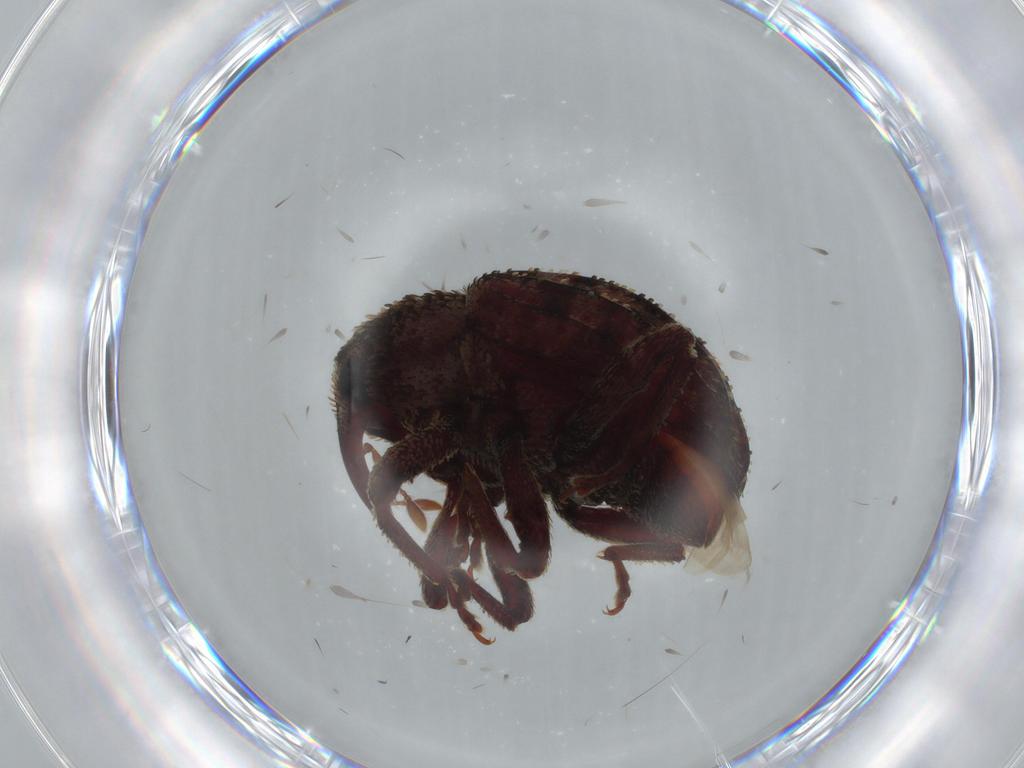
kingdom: Animalia
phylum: Arthropoda
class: Insecta
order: Coleoptera
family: Curculionidae
